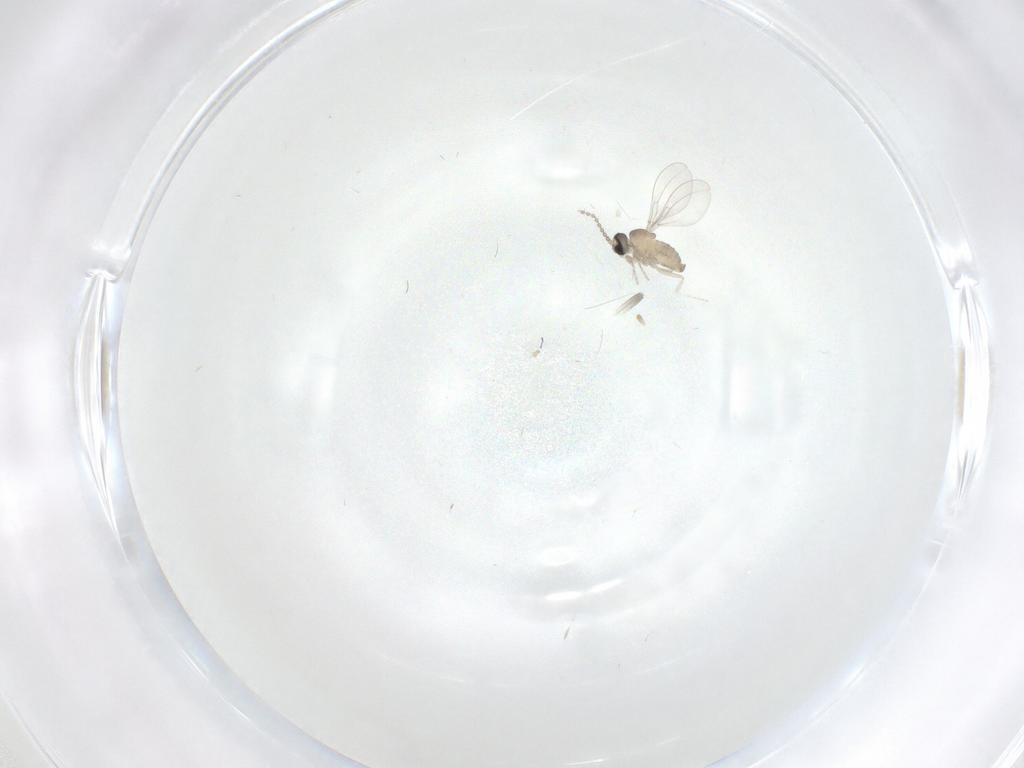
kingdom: Animalia
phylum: Arthropoda
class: Insecta
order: Diptera
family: Cecidomyiidae
